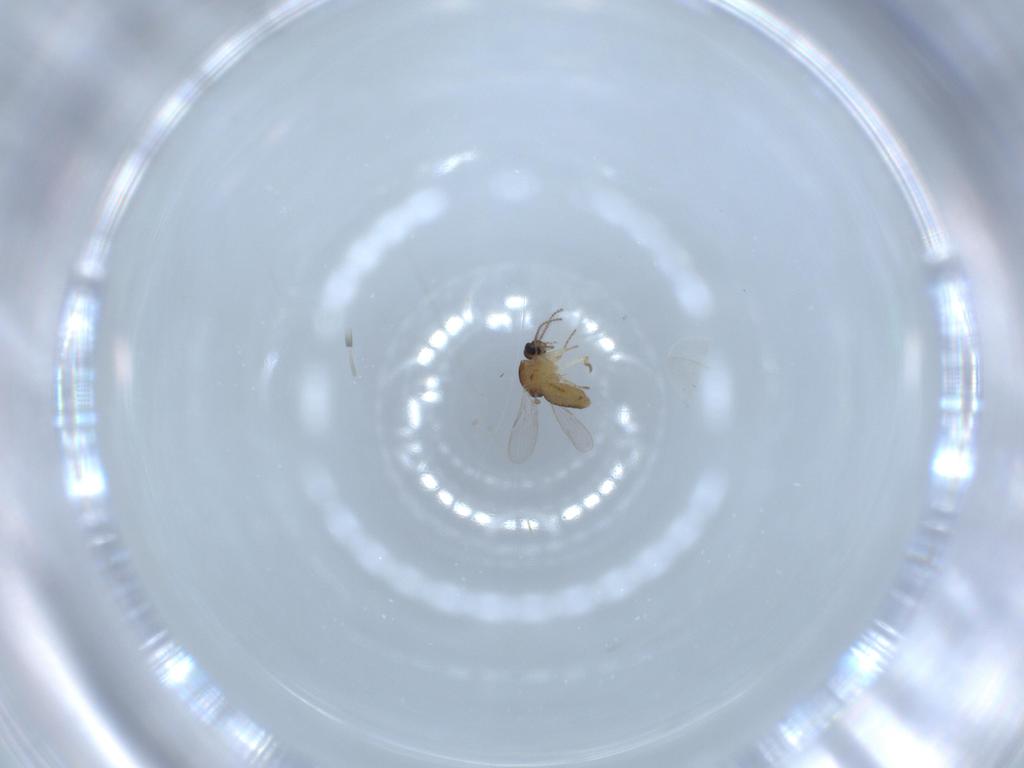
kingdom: Animalia
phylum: Arthropoda
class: Insecta
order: Diptera
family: Ceratopogonidae
